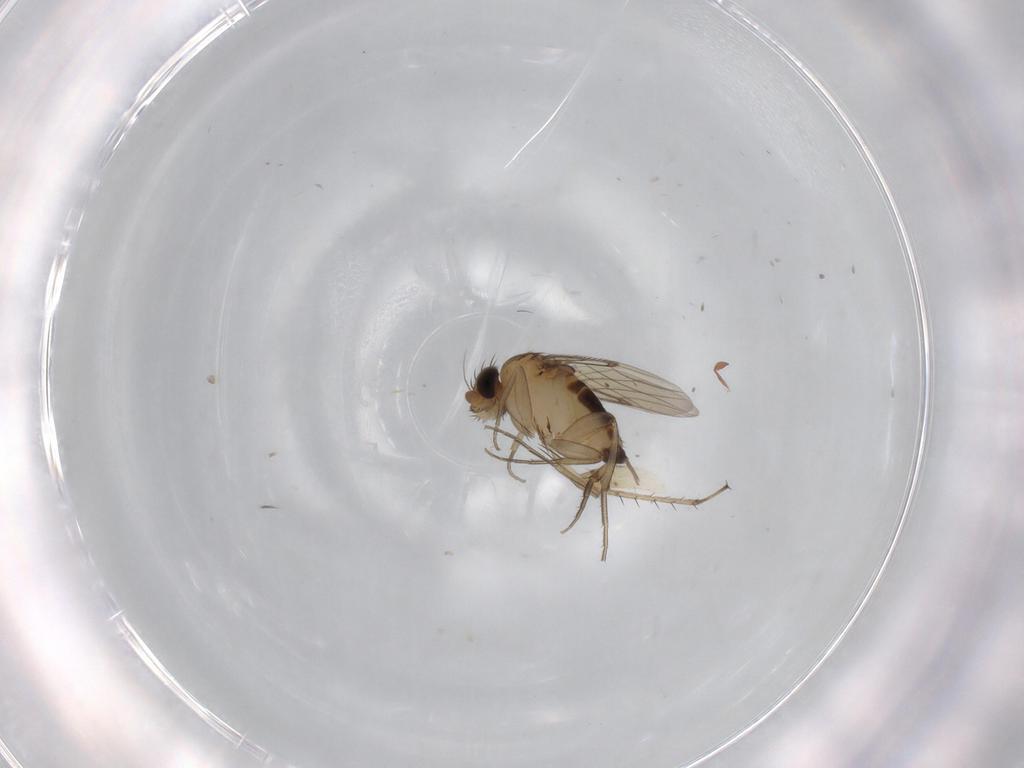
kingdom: Animalia
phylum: Arthropoda
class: Insecta
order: Diptera
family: Phoridae
